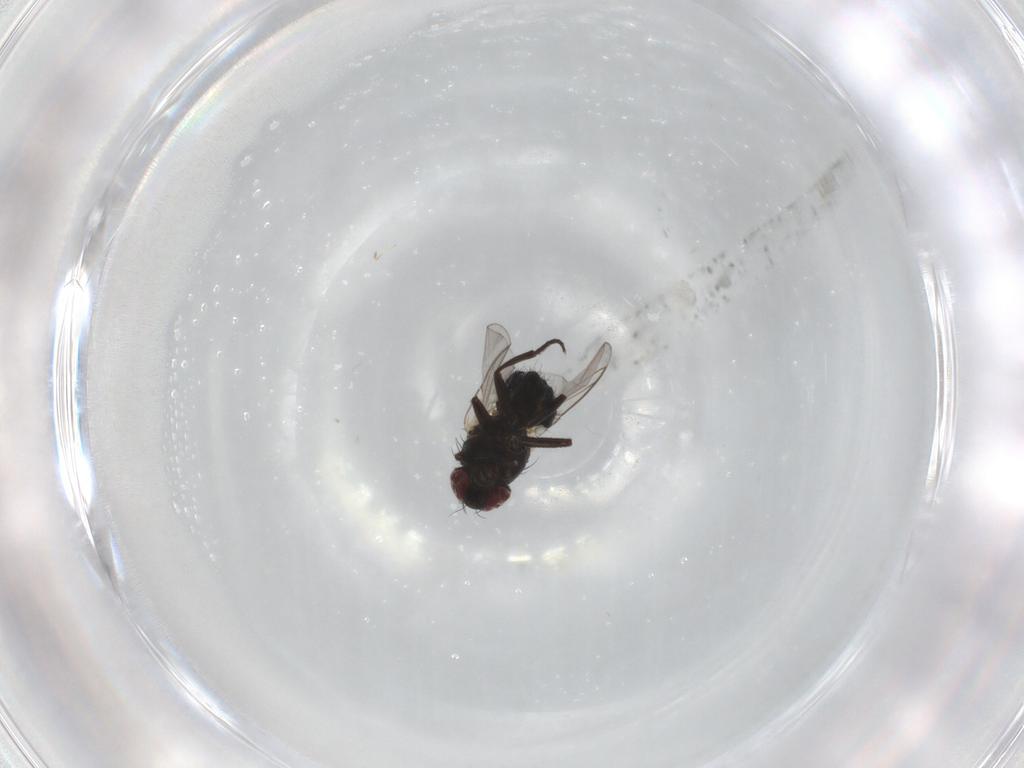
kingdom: Animalia
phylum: Arthropoda
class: Insecta
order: Diptera
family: Agromyzidae
